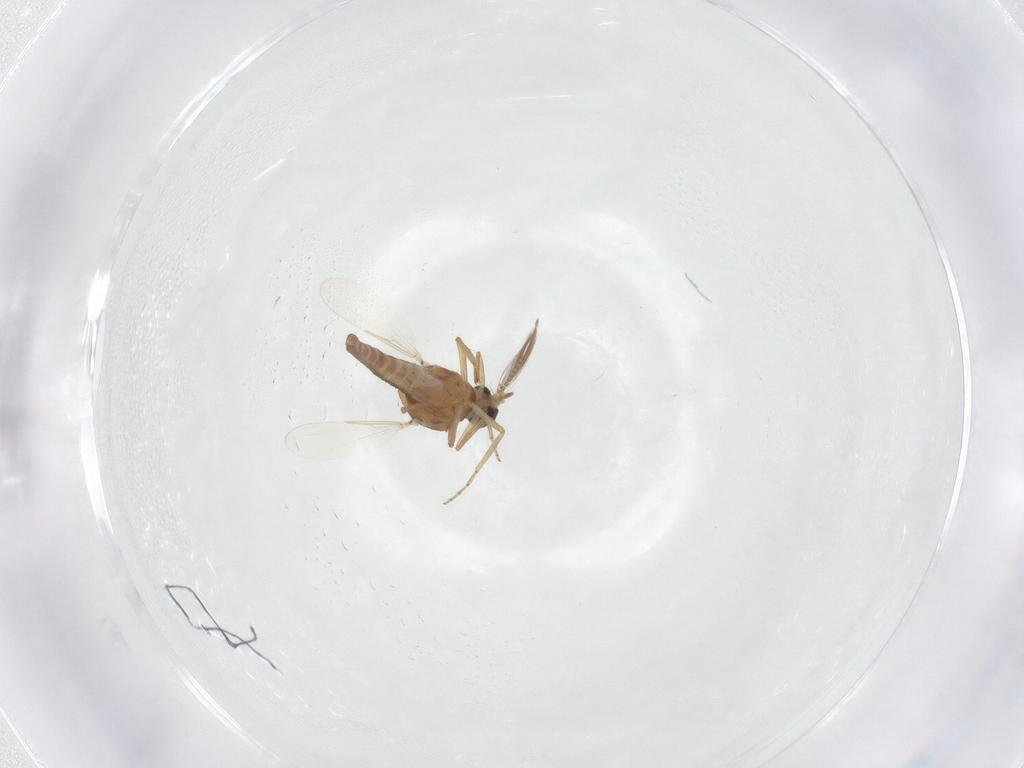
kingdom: Animalia
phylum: Arthropoda
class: Insecta
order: Diptera
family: Ceratopogonidae
